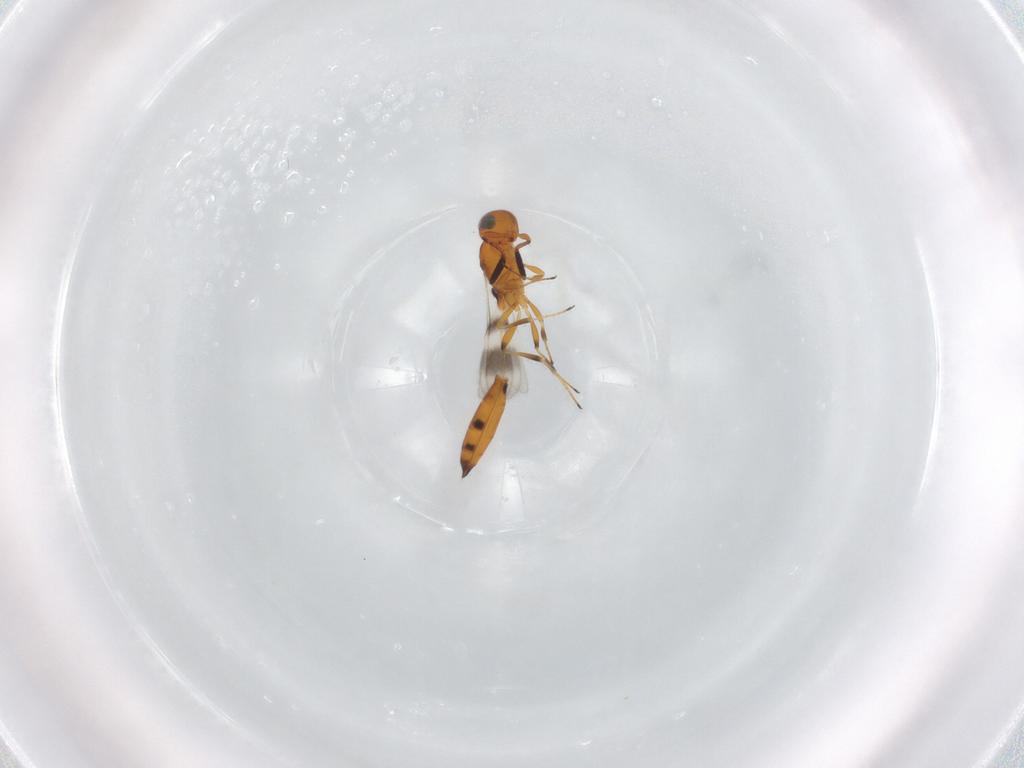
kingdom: Animalia
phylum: Arthropoda
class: Insecta
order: Hymenoptera
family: Scelionidae
